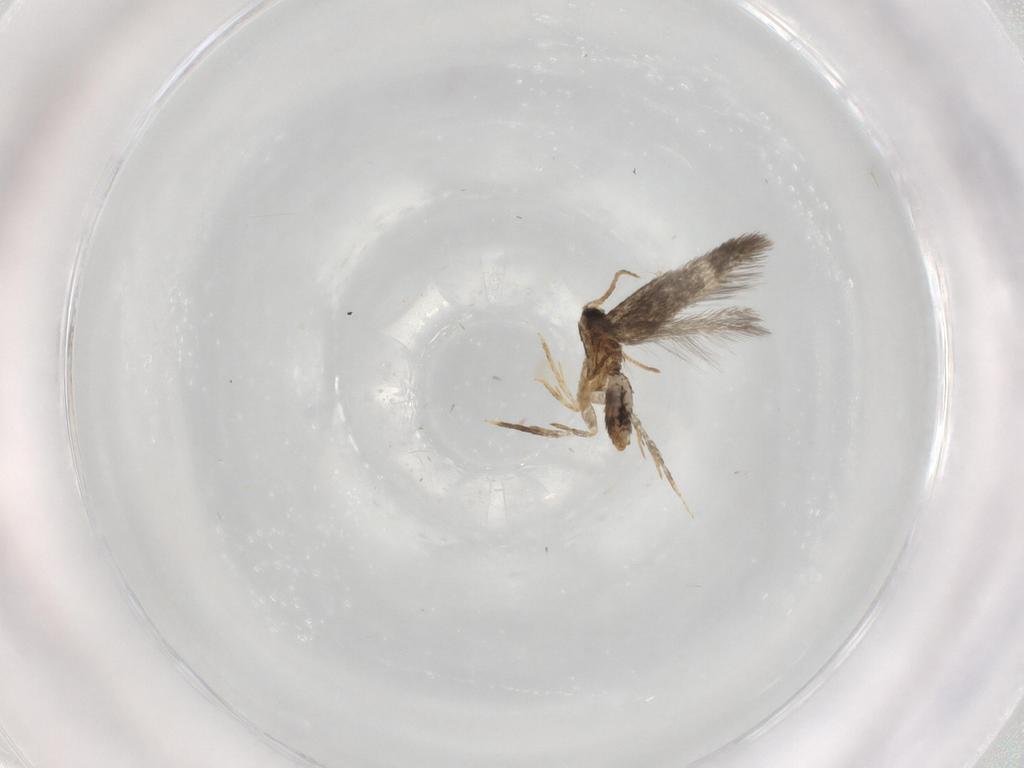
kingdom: Animalia
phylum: Arthropoda
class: Insecta
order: Lepidoptera
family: Nepticulidae
